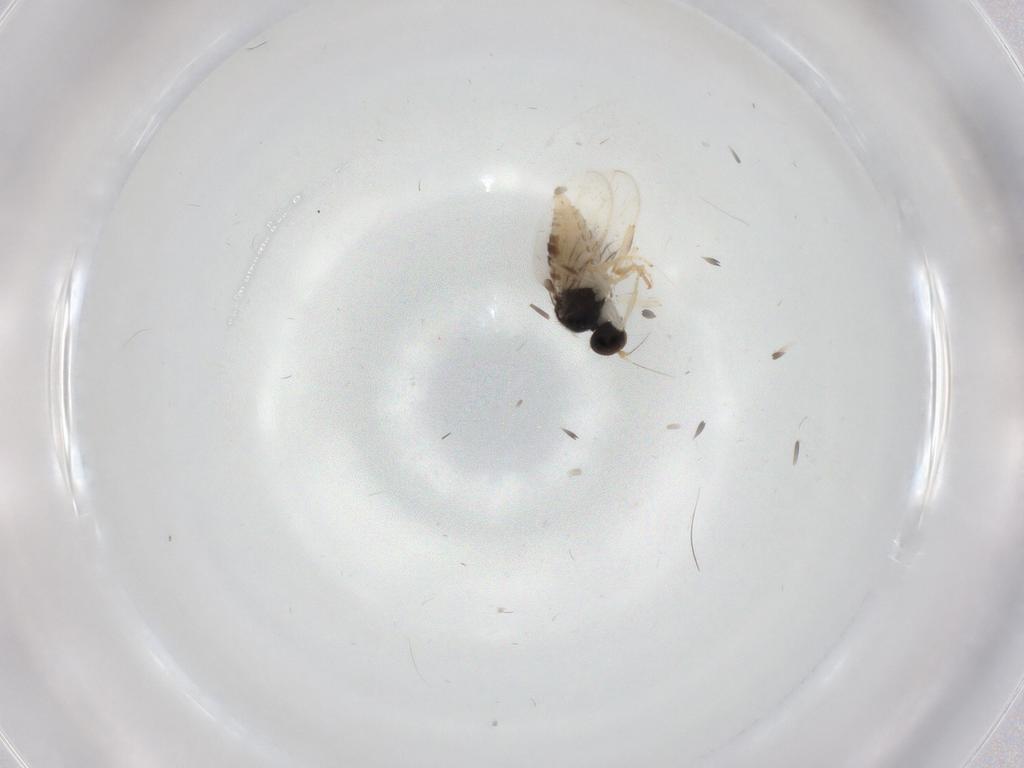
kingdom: Animalia
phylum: Arthropoda
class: Insecta
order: Diptera
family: Hybotidae
